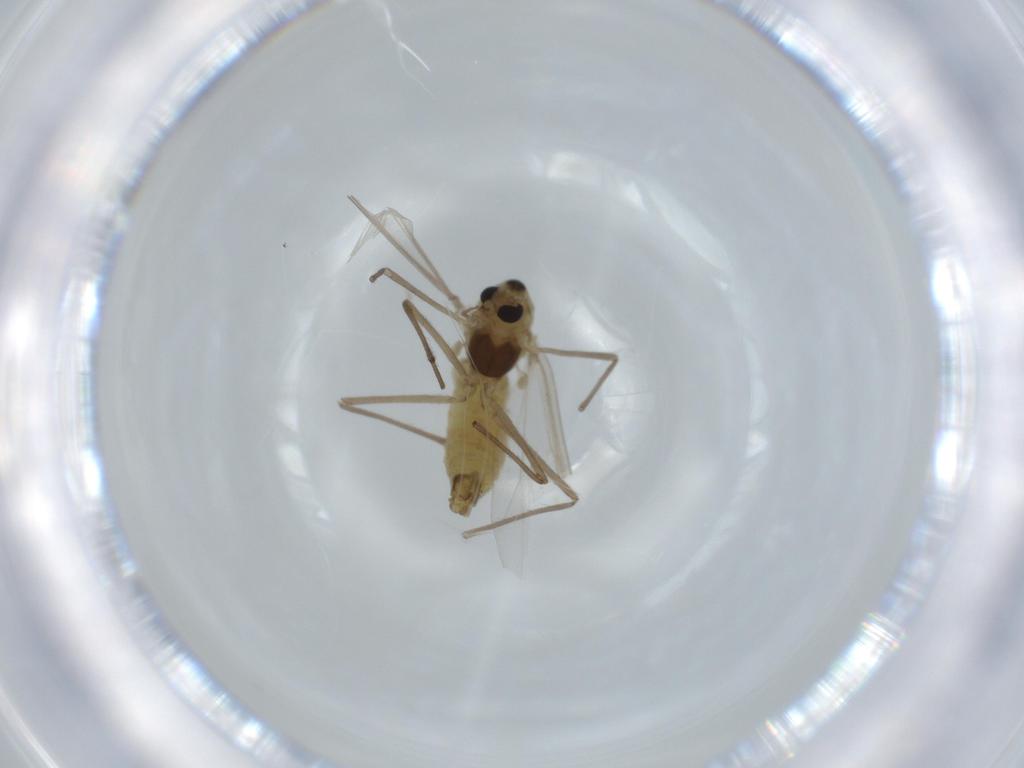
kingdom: Animalia
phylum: Arthropoda
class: Insecta
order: Diptera
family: Chironomidae
